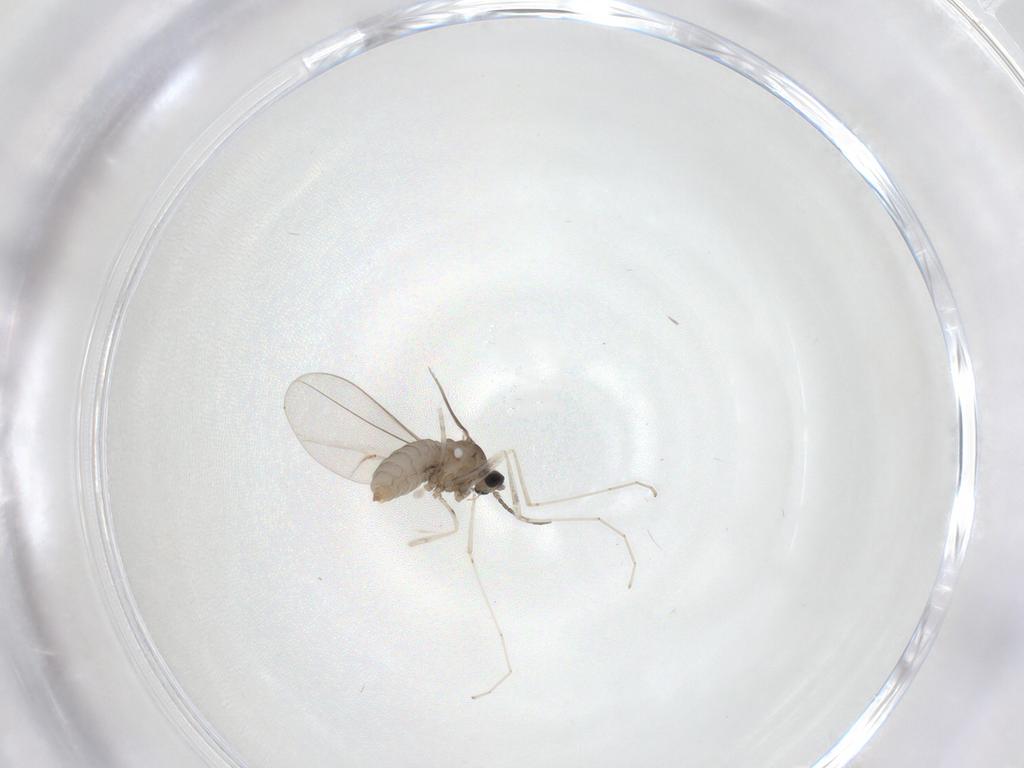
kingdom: Animalia
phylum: Arthropoda
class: Insecta
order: Diptera
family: Cecidomyiidae
